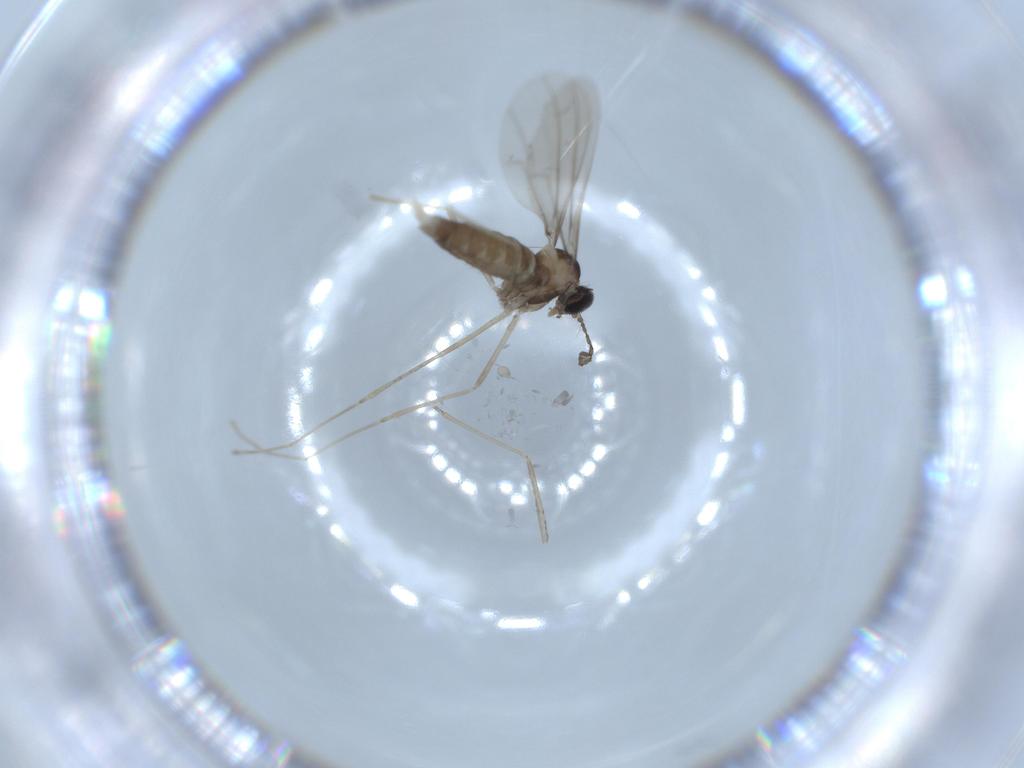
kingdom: Animalia
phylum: Arthropoda
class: Insecta
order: Diptera
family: Cecidomyiidae
